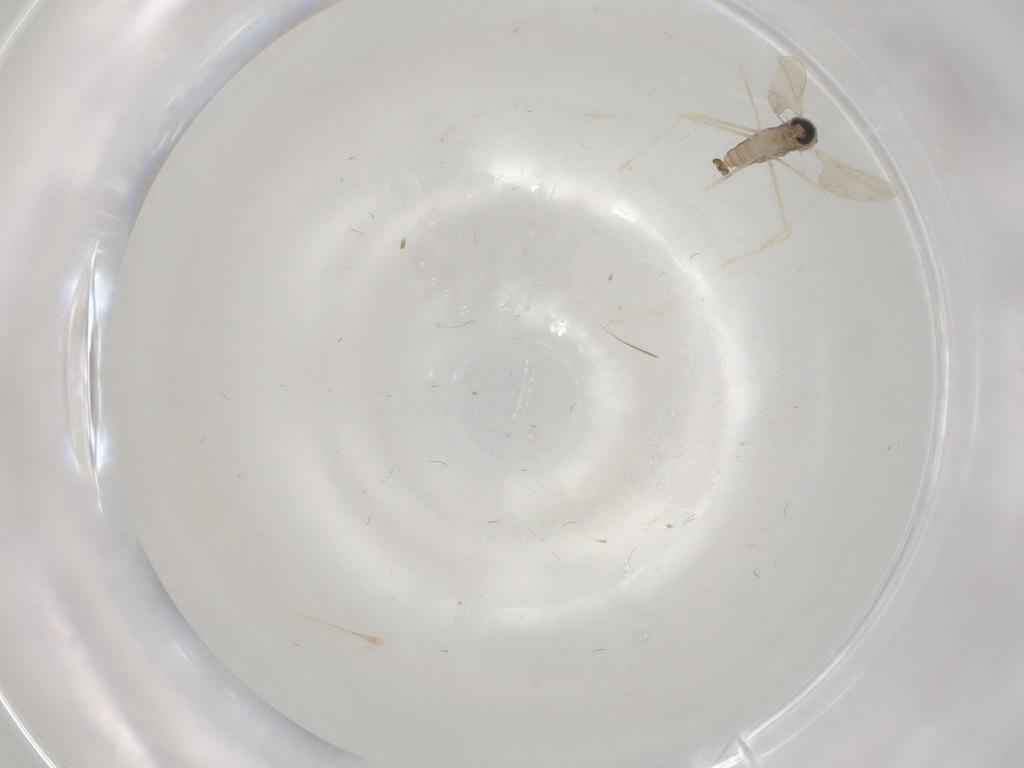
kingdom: Animalia
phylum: Arthropoda
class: Insecta
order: Diptera
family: Cecidomyiidae
